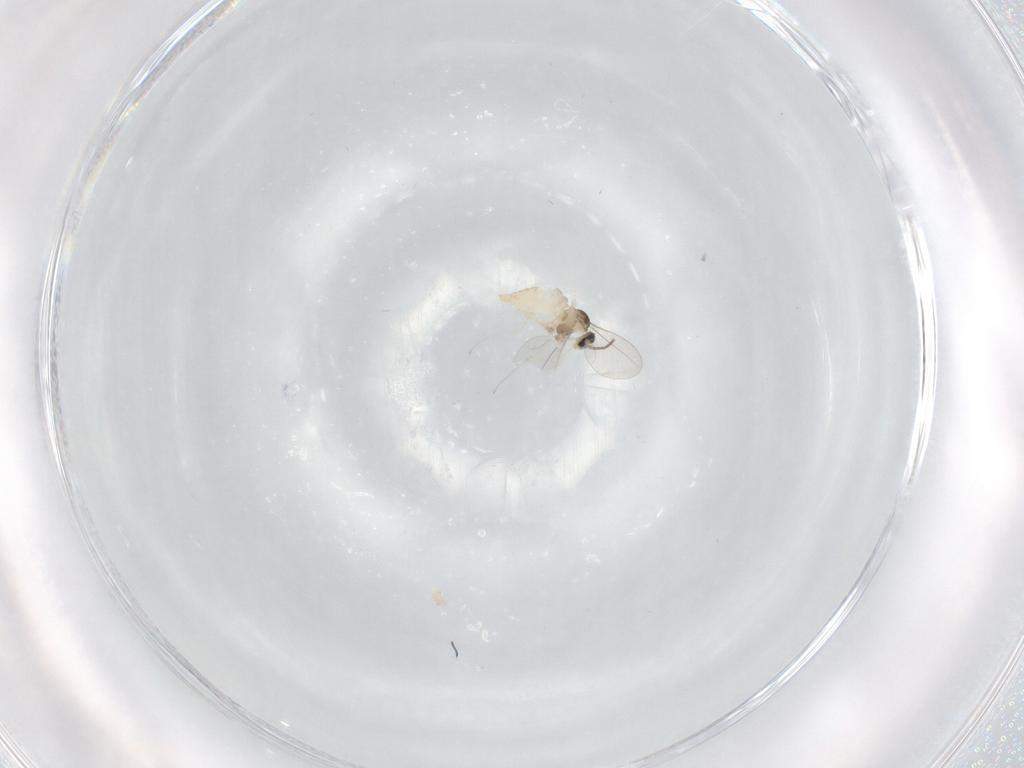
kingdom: Animalia
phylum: Arthropoda
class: Insecta
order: Diptera
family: Cecidomyiidae
